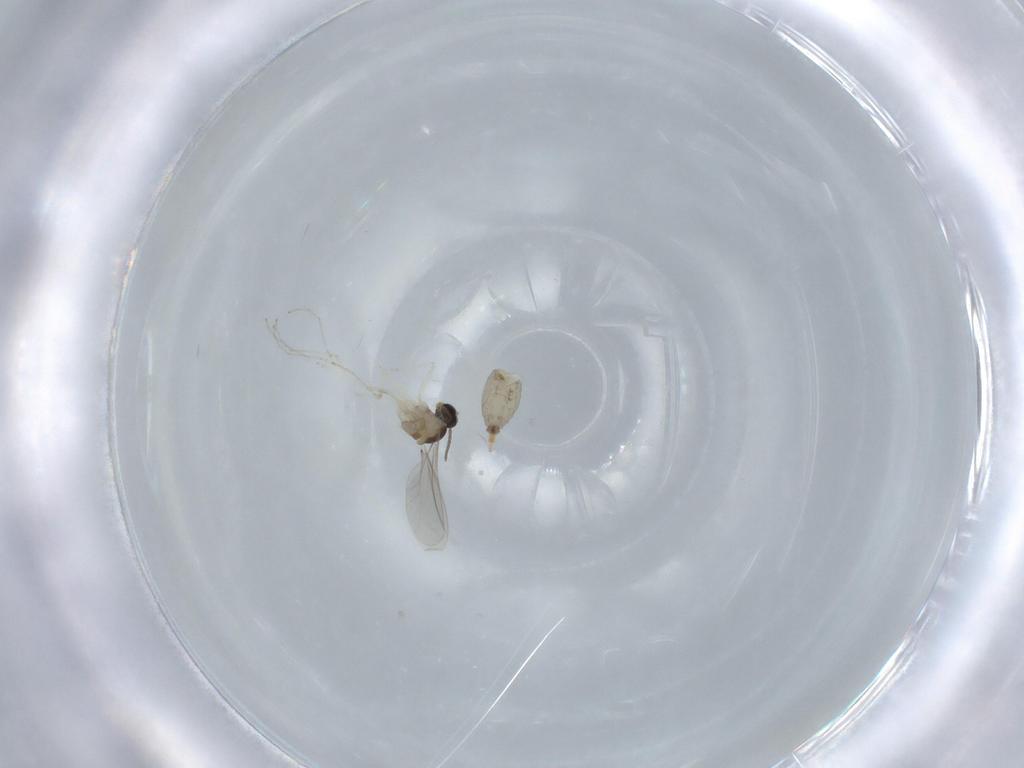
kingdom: Animalia
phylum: Arthropoda
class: Insecta
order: Diptera
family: Cecidomyiidae
